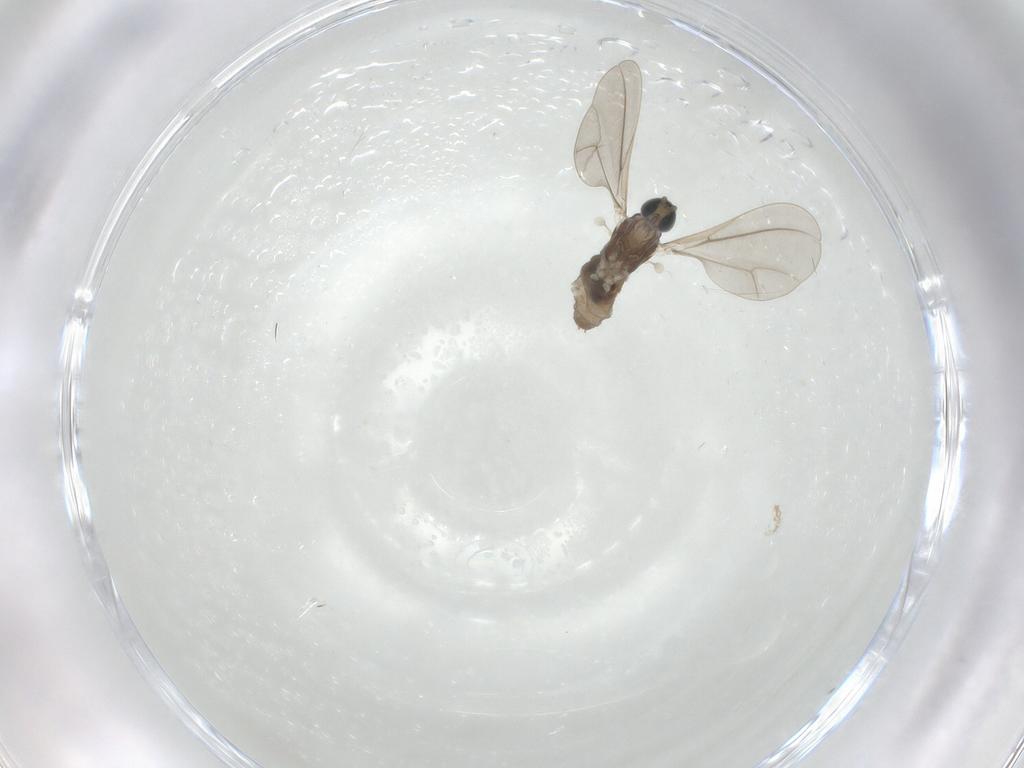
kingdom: Animalia
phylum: Arthropoda
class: Insecta
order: Diptera
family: Cecidomyiidae
